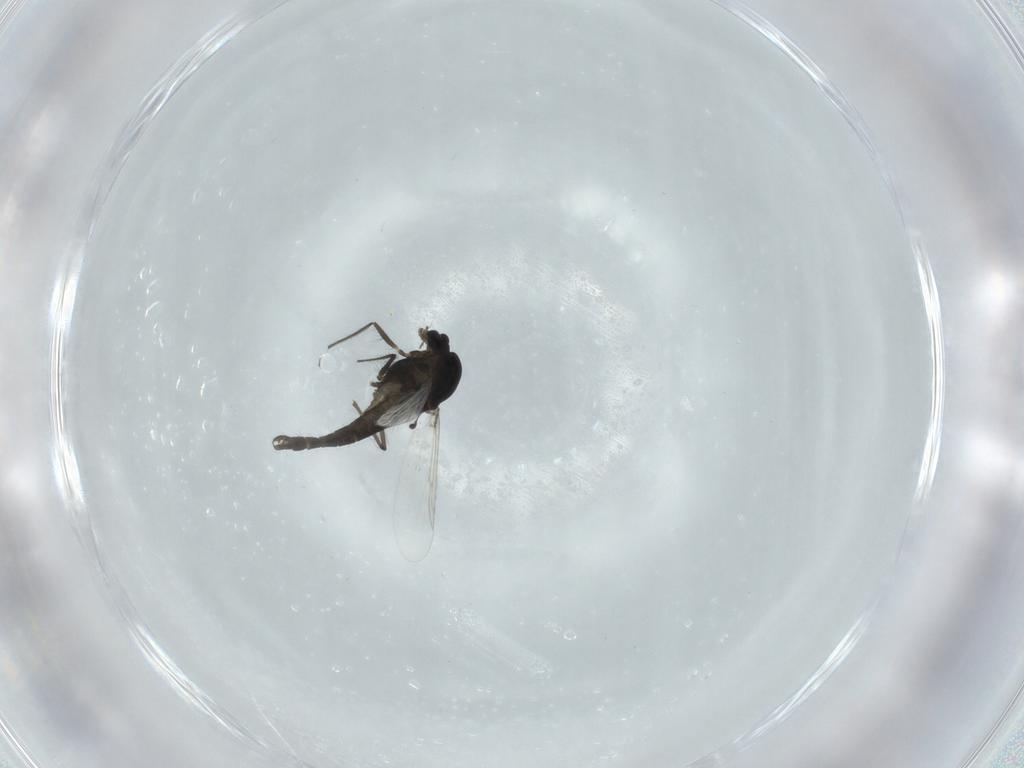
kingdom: Animalia
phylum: Arthropoda
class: Insecta
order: Diptera
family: Chironomidae
